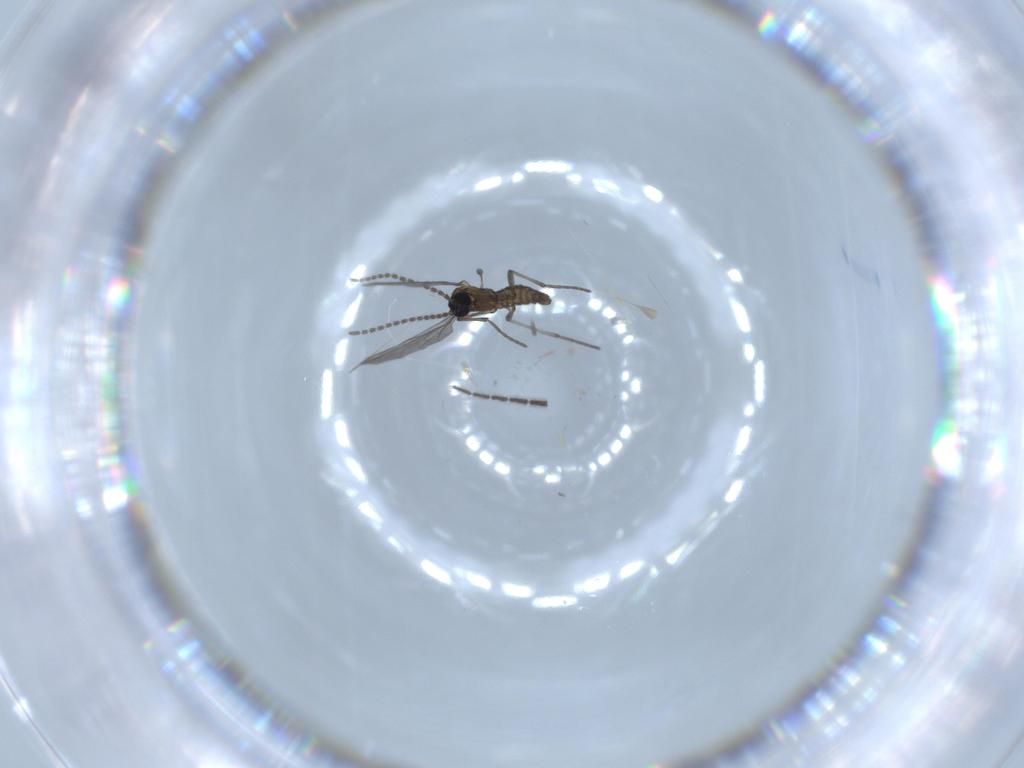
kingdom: Animalia
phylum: Arthropoda
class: Insecta
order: Diptera
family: Sciaridae
